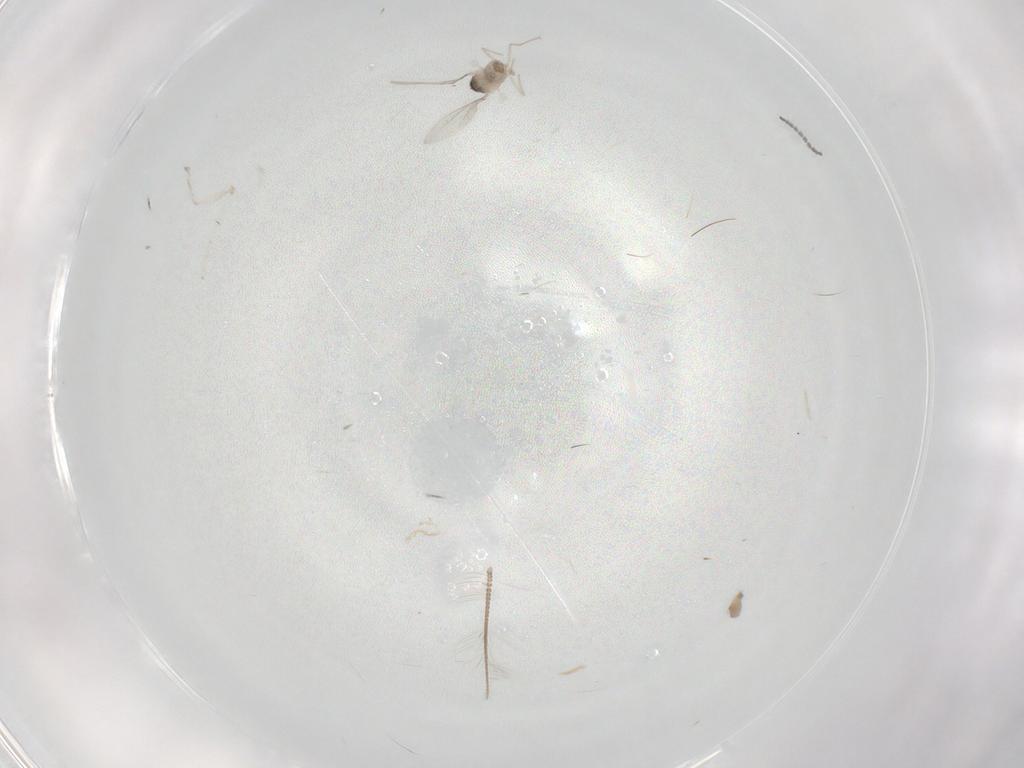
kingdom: Animalia
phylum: Arthropoda
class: Insecta
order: Diptera
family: Cecidomyiidae
